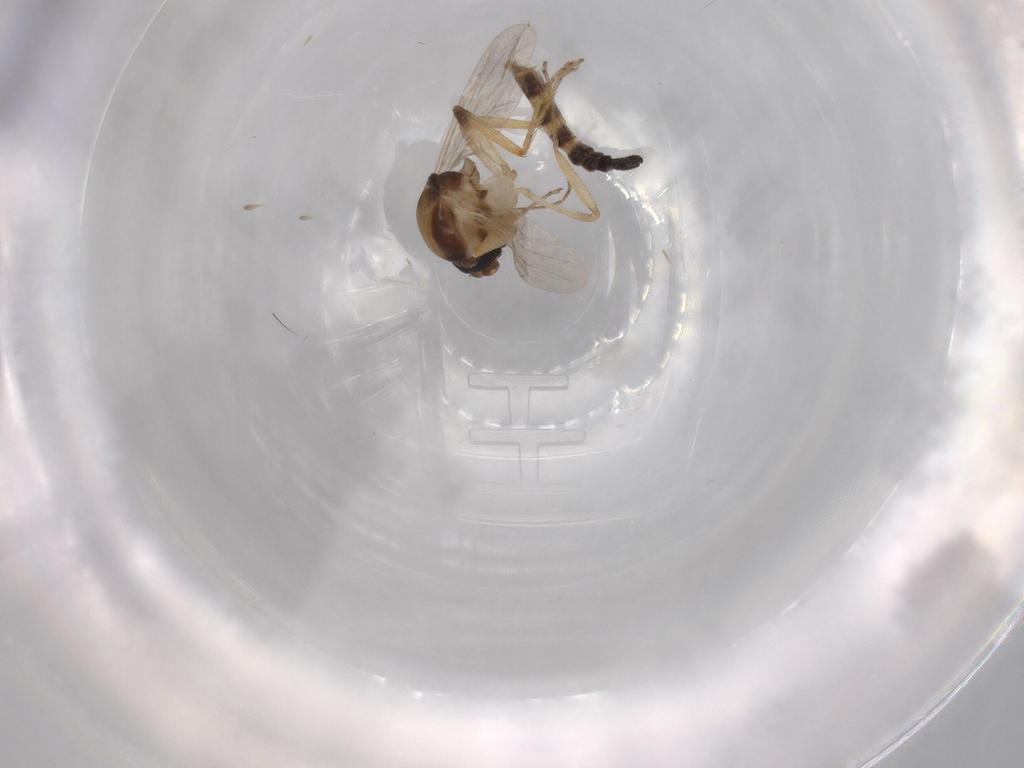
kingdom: Animalia
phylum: Arthropoda
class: Insecta
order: Diptera
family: Ceratopogonidae
